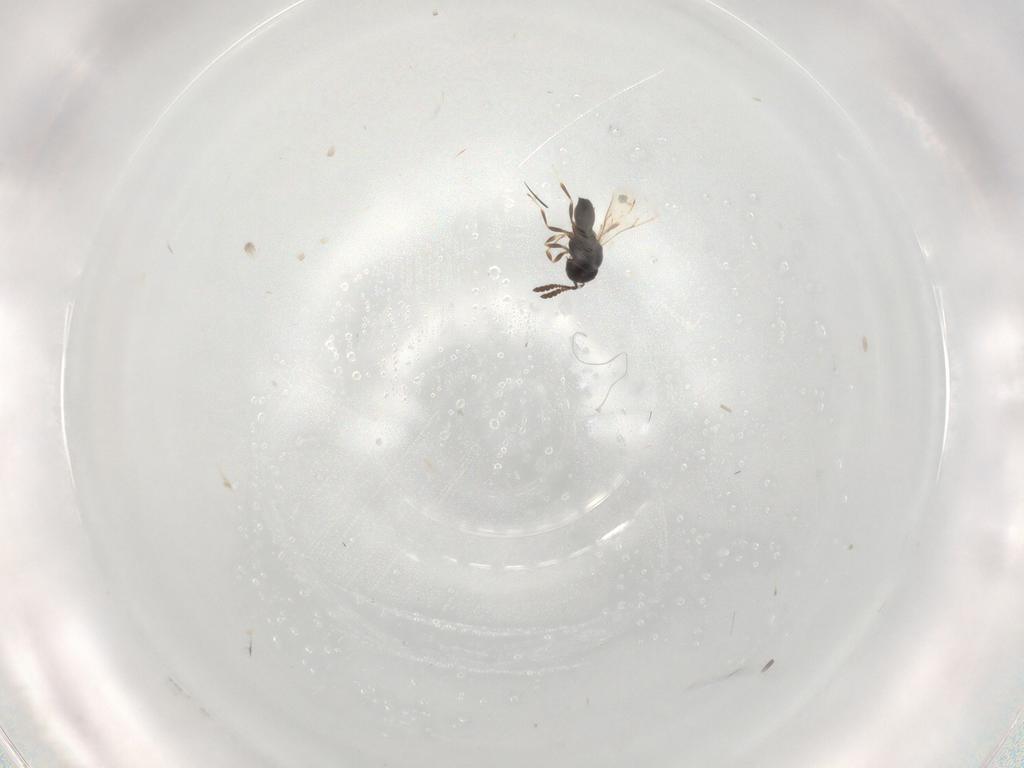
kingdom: Animalia
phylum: Arthropoda
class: Insecta
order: Hymenoptera
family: Scelionidae
